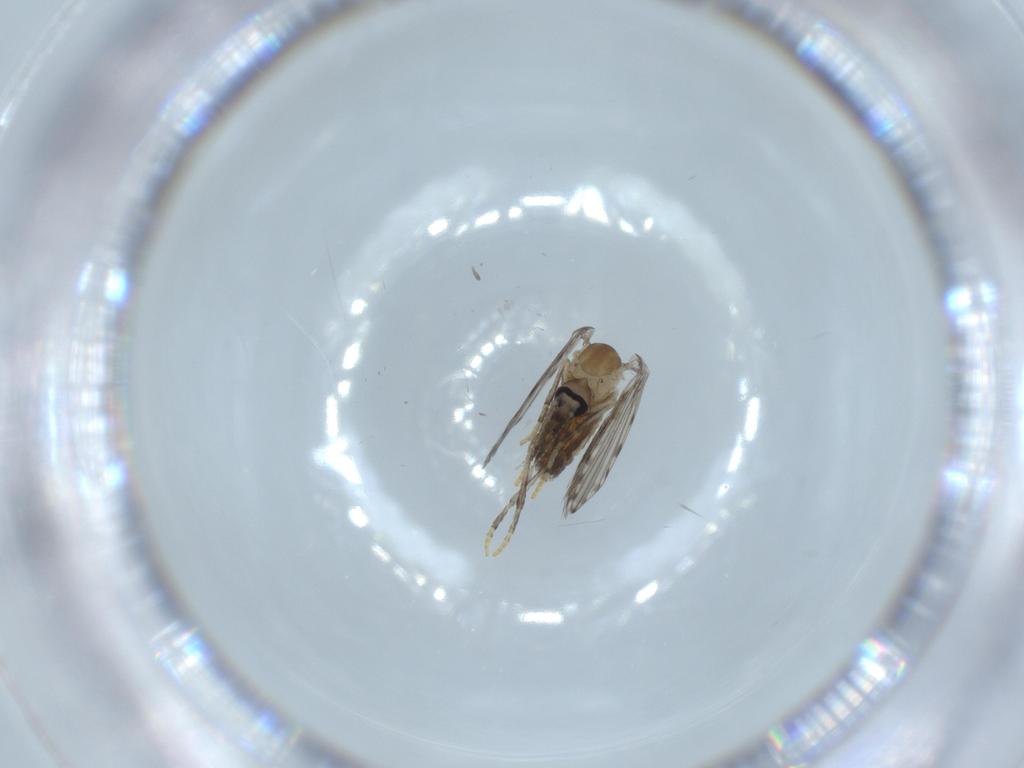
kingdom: Animalia
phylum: Arthropoda
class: Insecta
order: Diptera
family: Psychodidae
